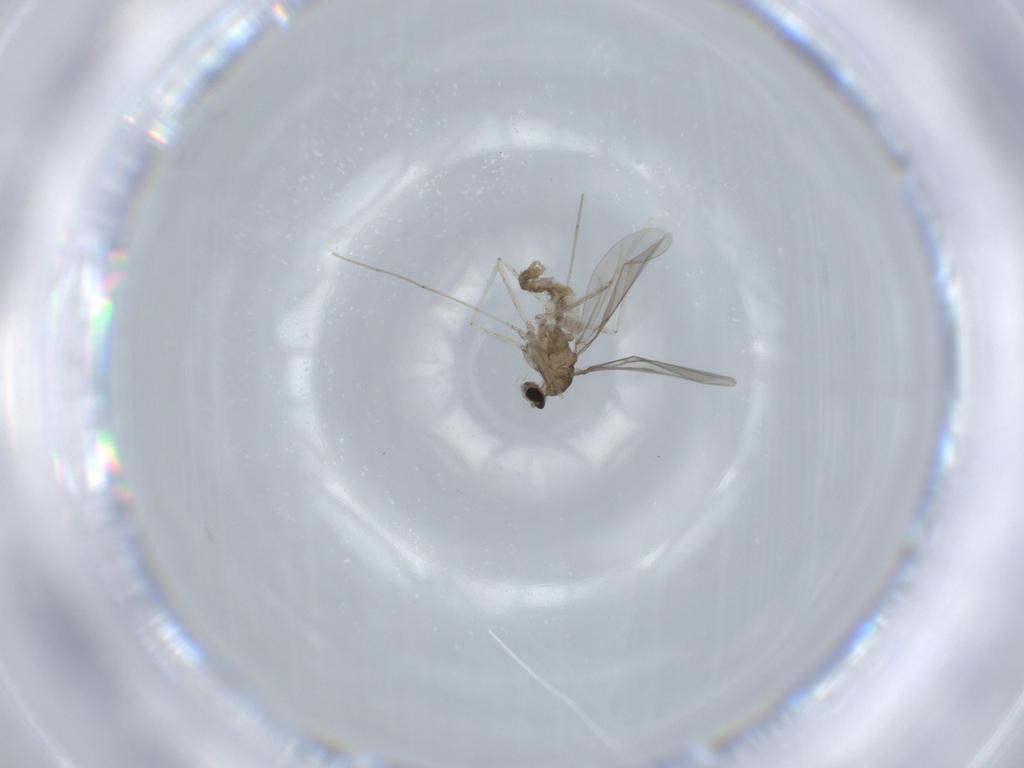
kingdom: Animalia
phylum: Arthropoda
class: Insecta
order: Diptera
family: Cecidomyiidae
